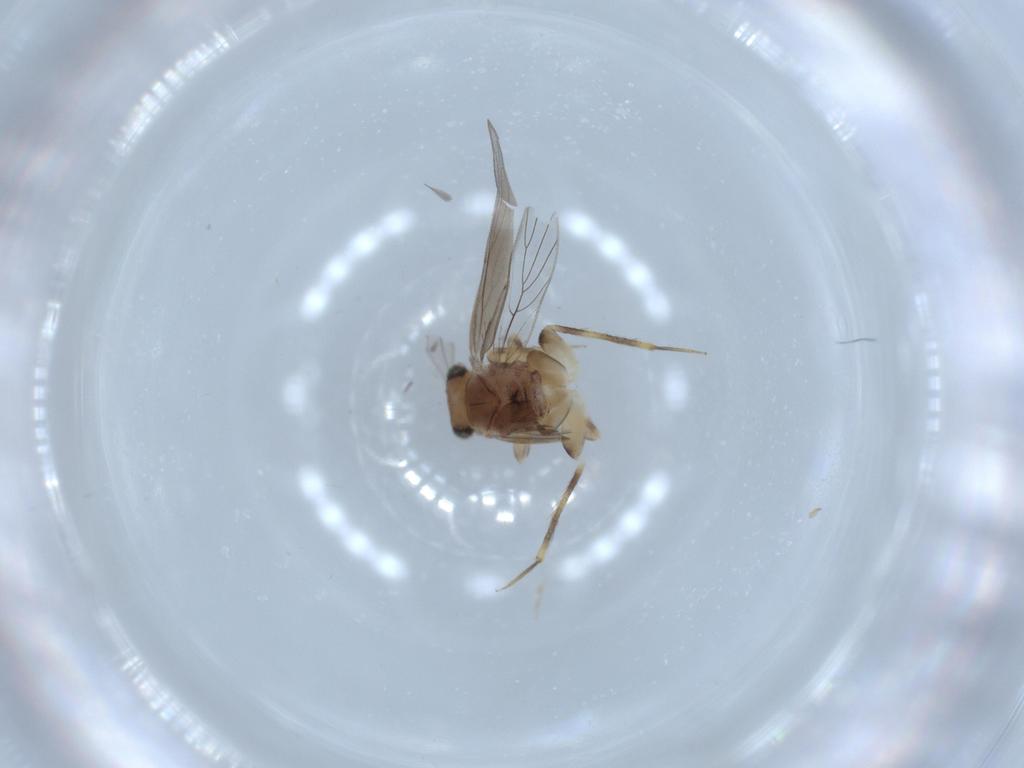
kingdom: Animalia
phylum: Arthropoda
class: Insecta
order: Psocodea
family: Lepidopsocidae
